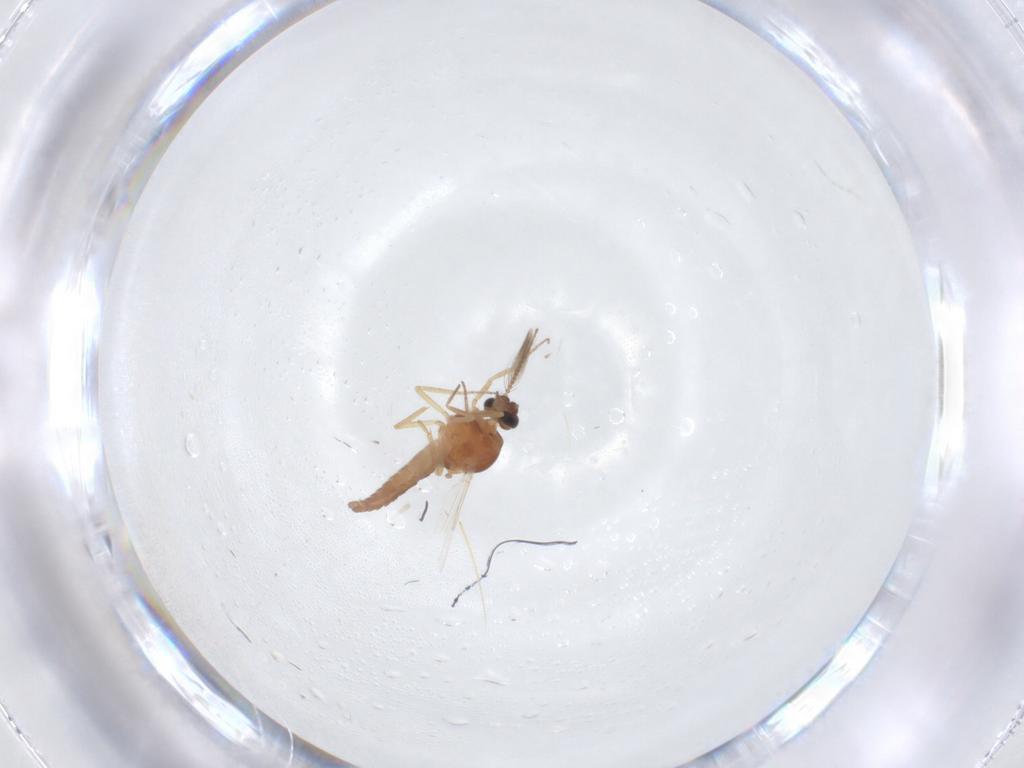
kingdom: Animalia
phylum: Arthropoda
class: Insecta
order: Diptera
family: Ceratopogonidae
